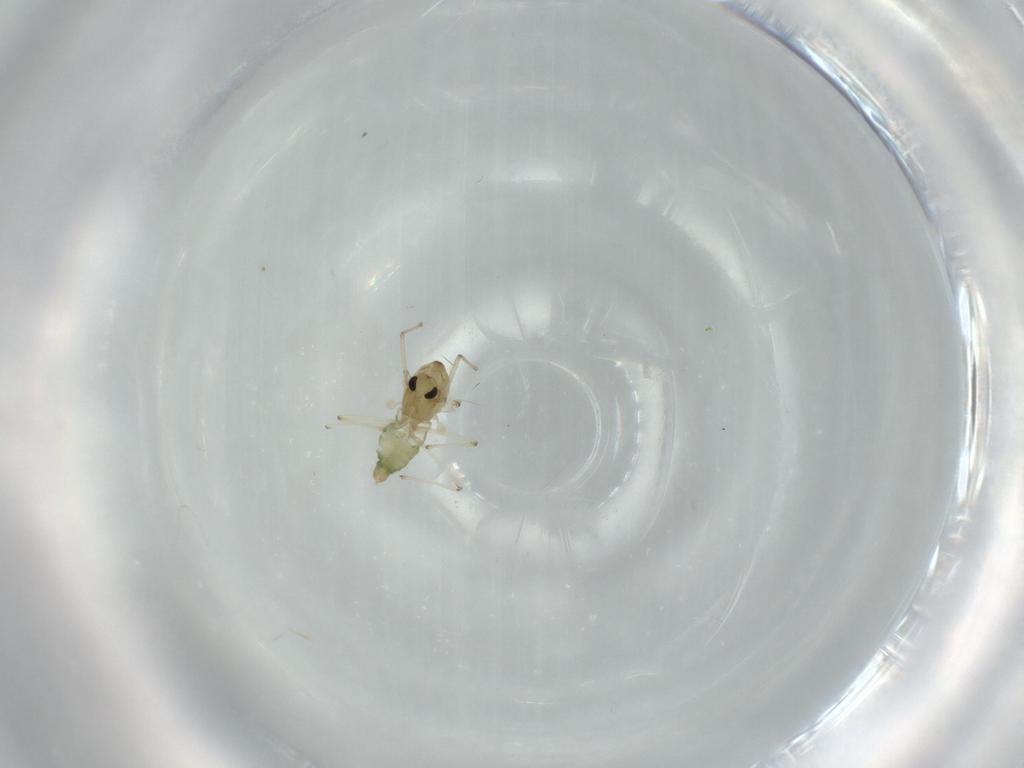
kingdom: Animalia
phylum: Arthropoda
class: Insecta
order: Diptera
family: Chironomidae
